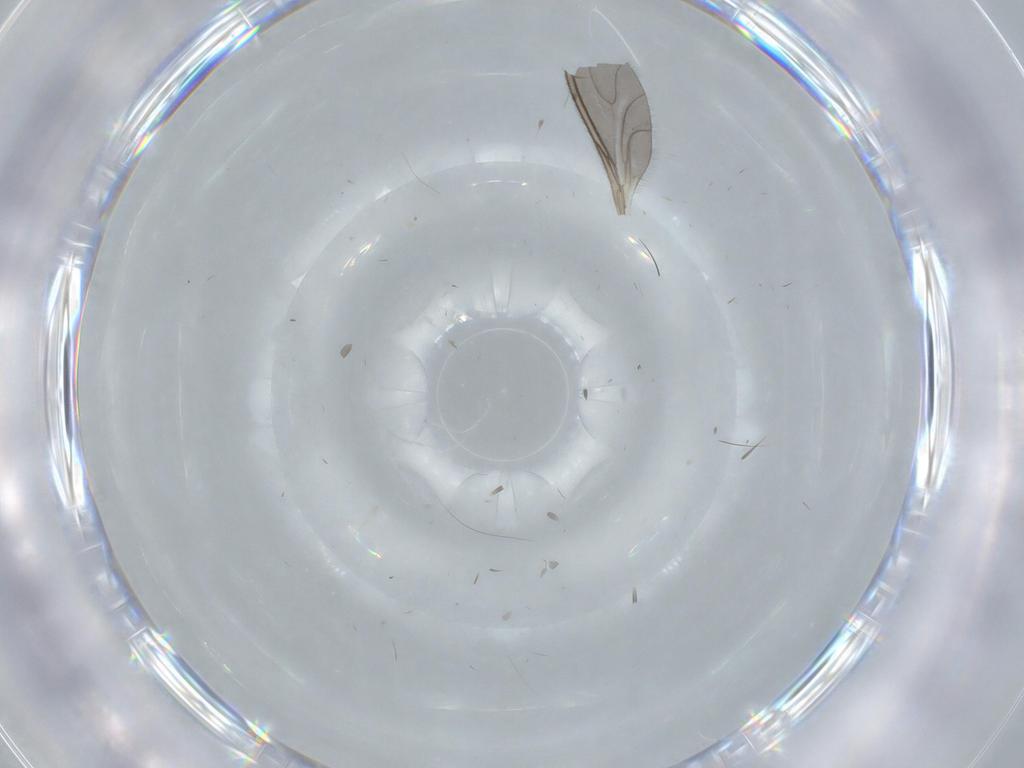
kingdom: Animalia
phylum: Arthropoda
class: Insecta
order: Diptera
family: Sciaridae
